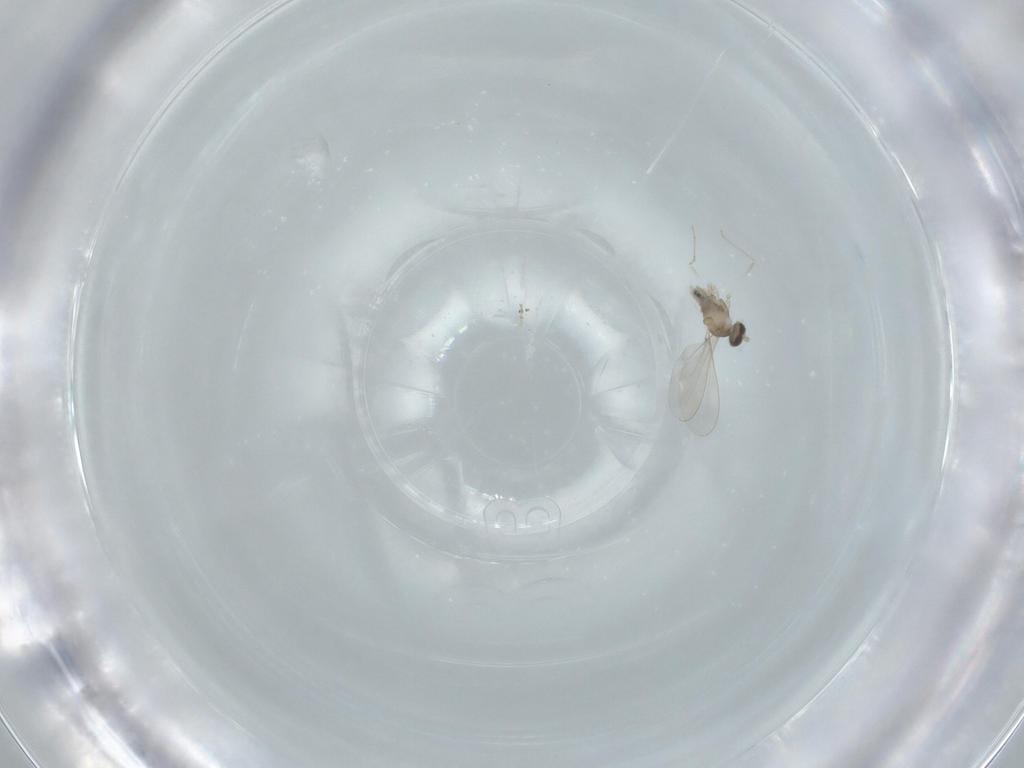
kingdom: Animalia
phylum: Arthropoda
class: Insecta
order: Diptera
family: Cecidomyiidae
